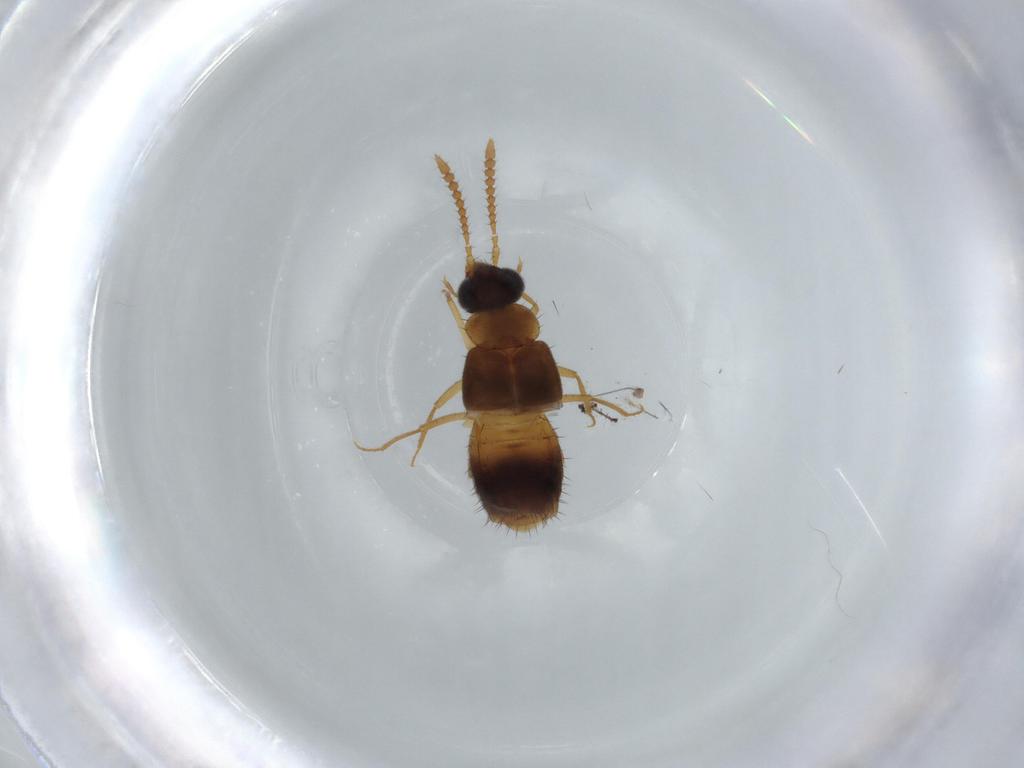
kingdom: Animalia
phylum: Arthropoda
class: Insecta
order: Coleoptera
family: Staphylinidae
